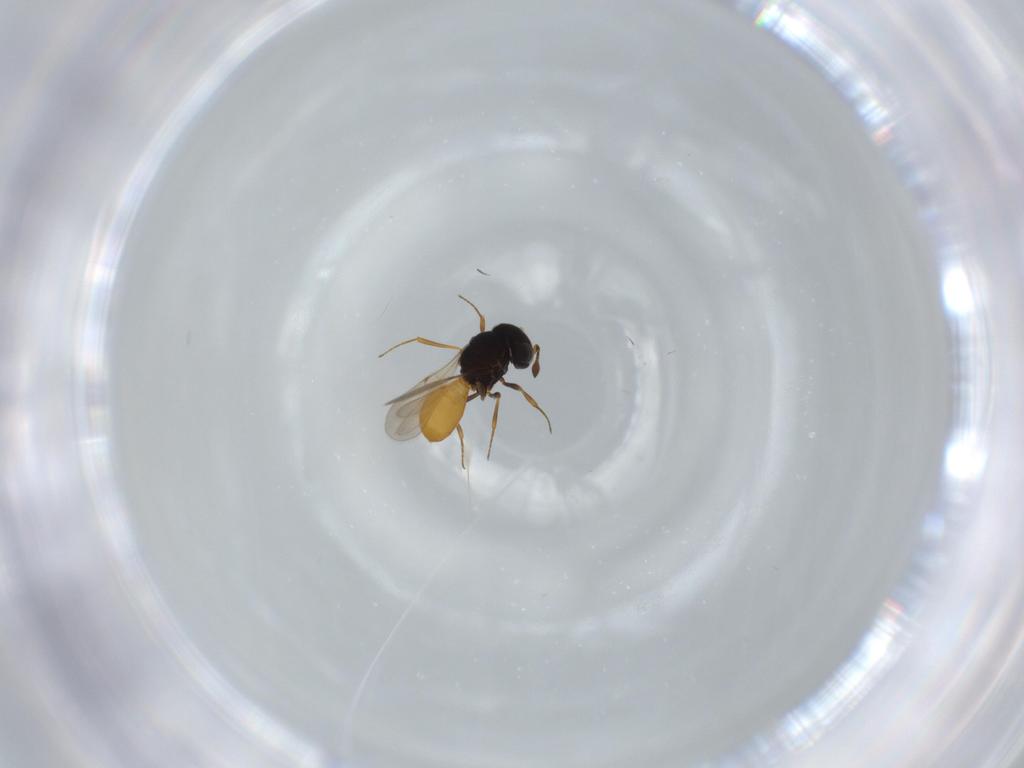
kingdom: Animalia
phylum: Arthropoda
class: Insecta
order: Hymenoptera
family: Scelionidae
